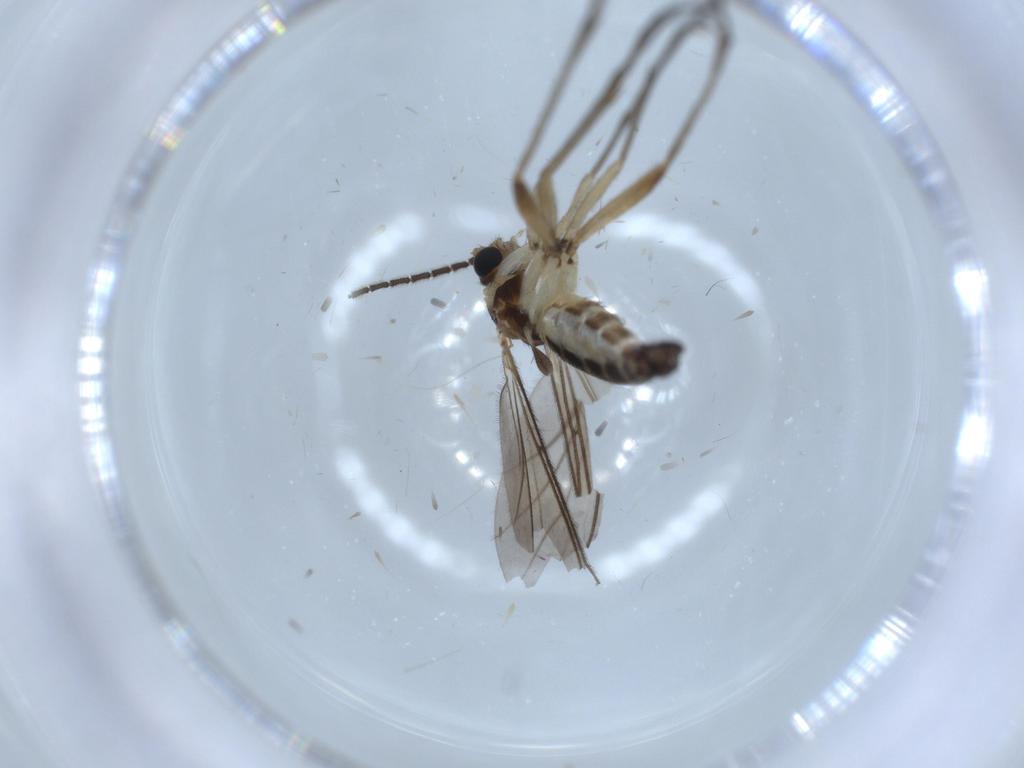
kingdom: Animalia
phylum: Arthropoda
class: Insecta
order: Diptera
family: Sciaridae
